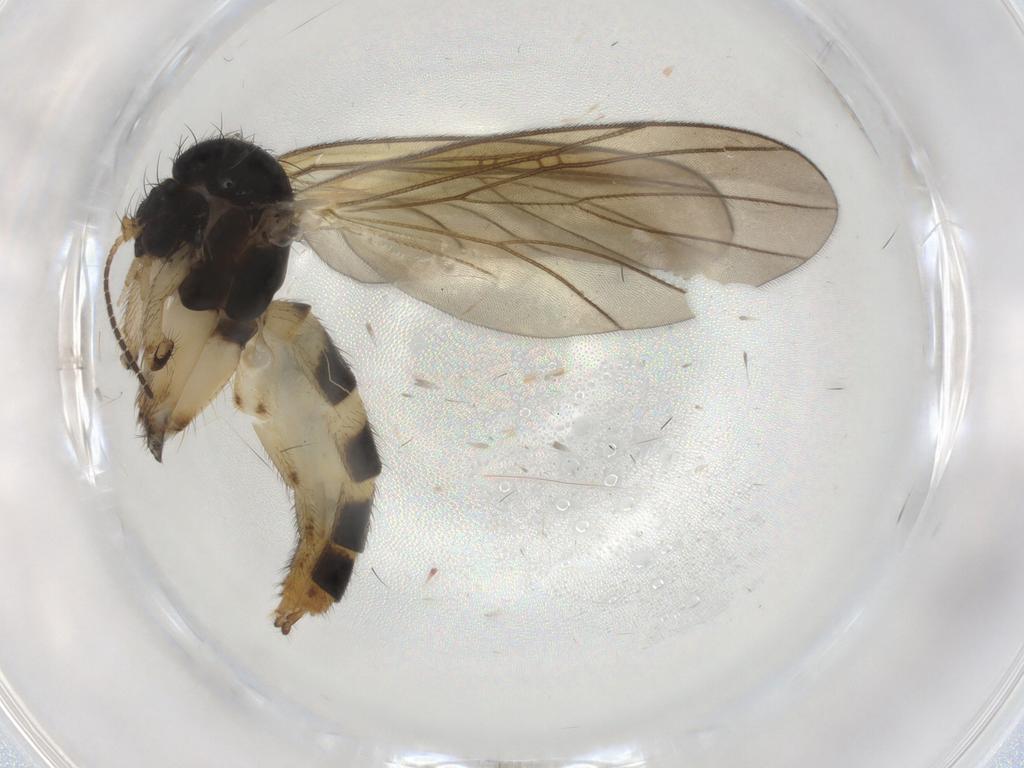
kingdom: Animalia
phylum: Arthropoda
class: Insecta
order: Diptera
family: Mycetophilidae
